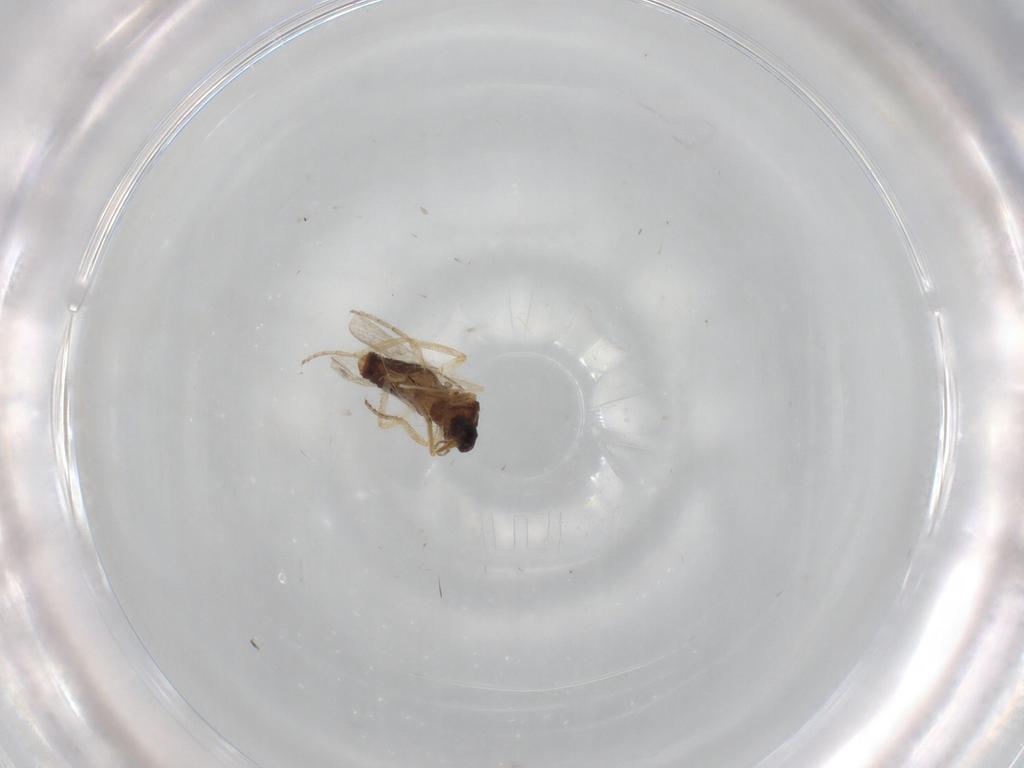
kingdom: Animalia
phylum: Arthropoda
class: Insecta
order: Diptera
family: Ceratopogonidae
